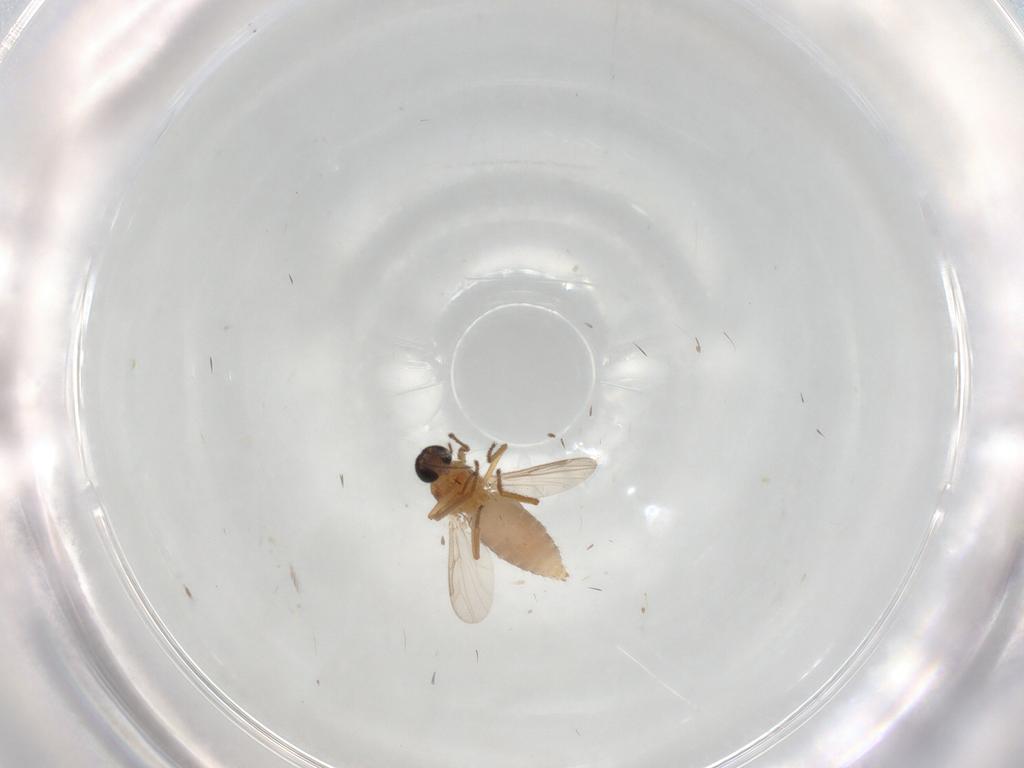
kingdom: Animalia
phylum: Arthropoda
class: Insecta
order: Diptera
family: Ceratopogonidae
